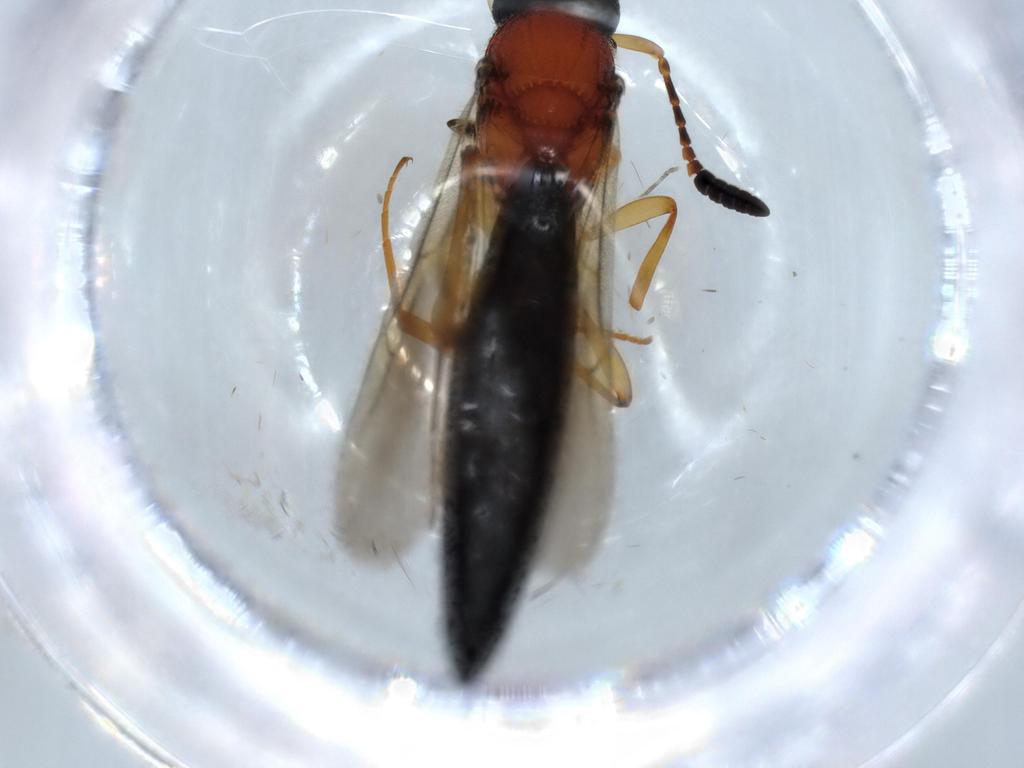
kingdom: Animalia
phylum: Arthropoda
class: Insecta
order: Hymenoptera
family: Scelionidae
